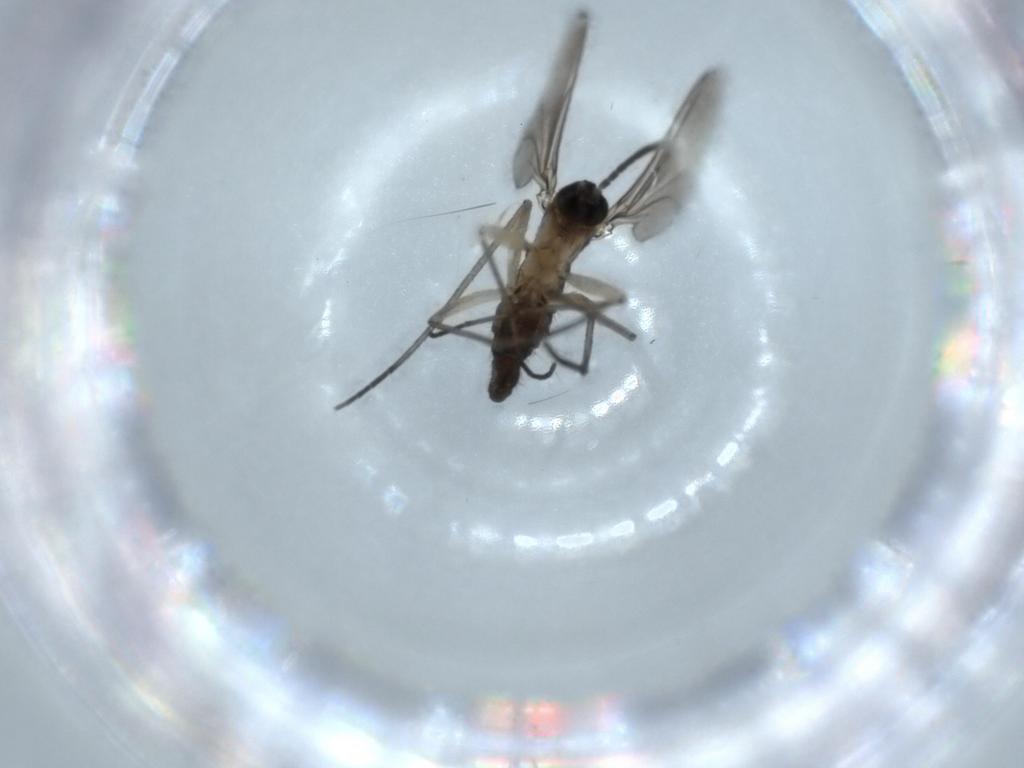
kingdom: Animalia
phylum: Arthropoda
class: Insecta
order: Diptera
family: Sciaridae
